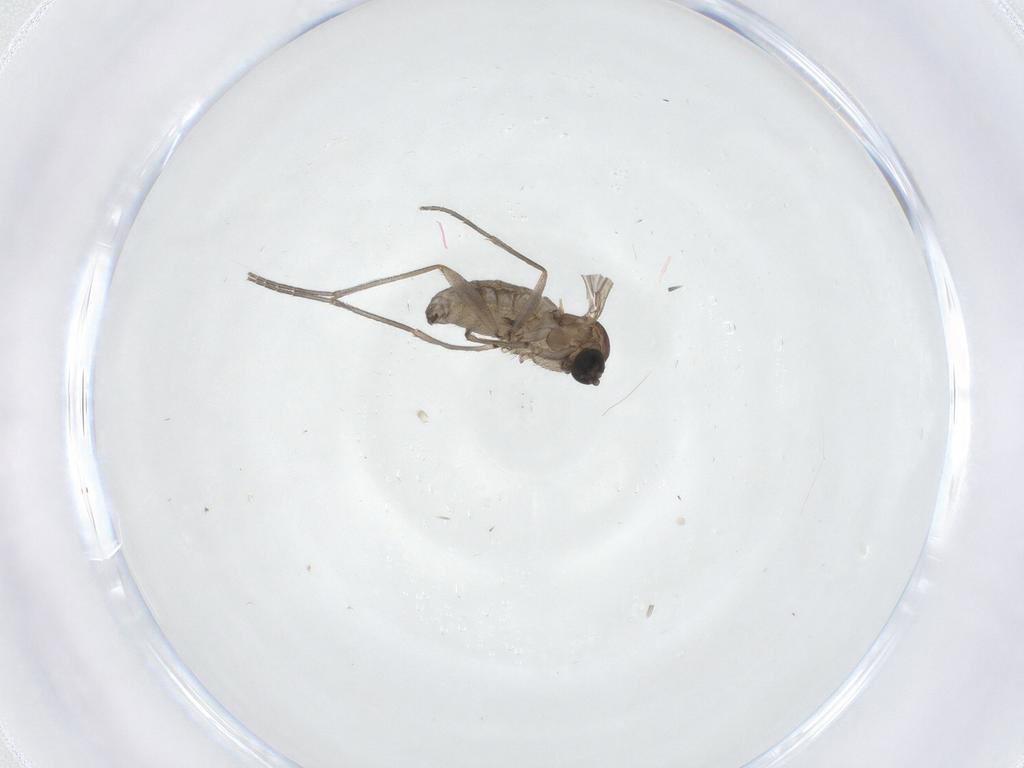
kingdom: Animalia
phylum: Arthropoda
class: Insecta
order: Diptera
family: Sciaridae
